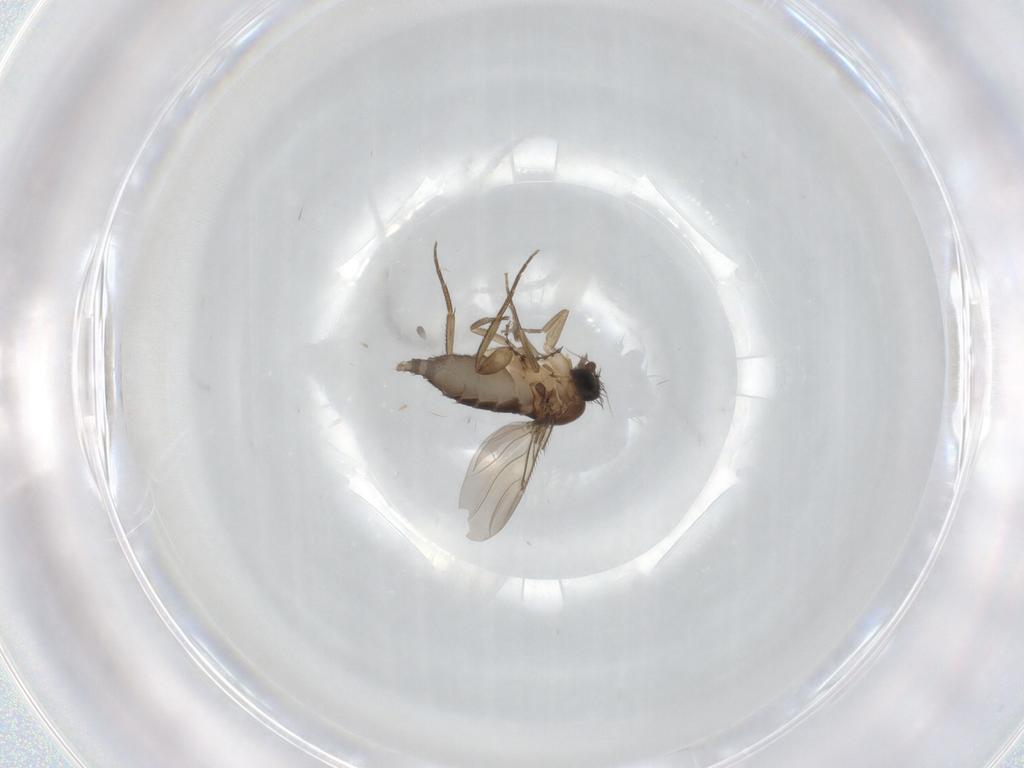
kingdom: Animalia
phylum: Arthropoda
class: Insecta
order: Diptera
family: Phoridae
